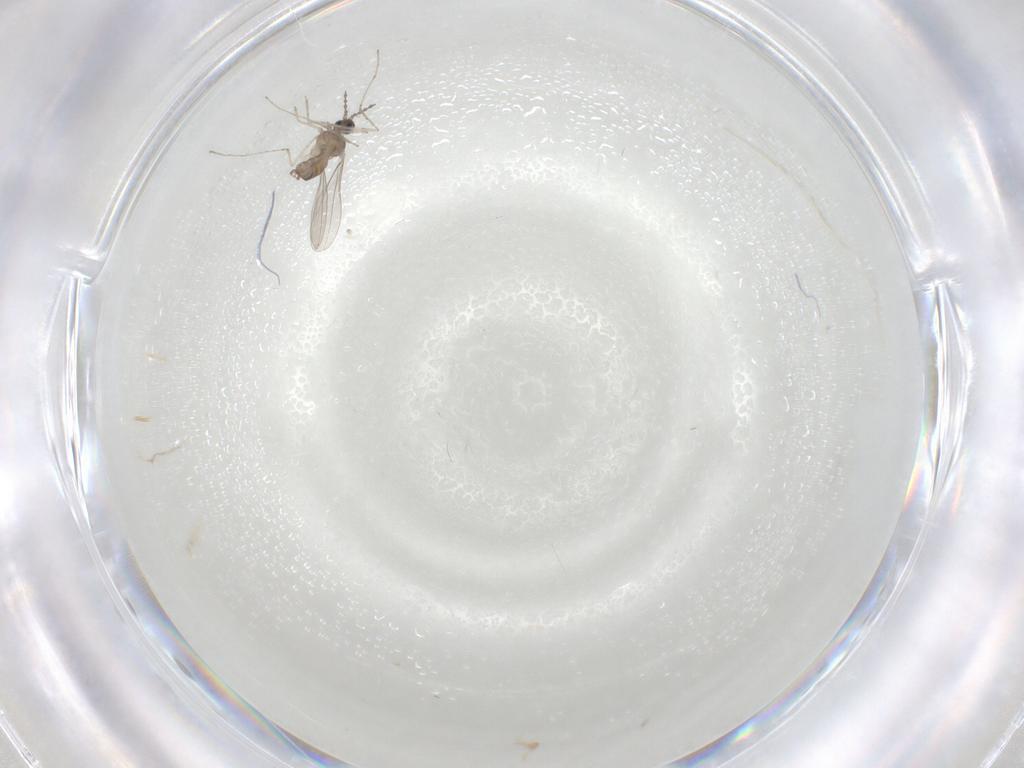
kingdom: Animalia
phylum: Arthropoda
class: Insecta
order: Diptera
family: Cecidomyiidae
